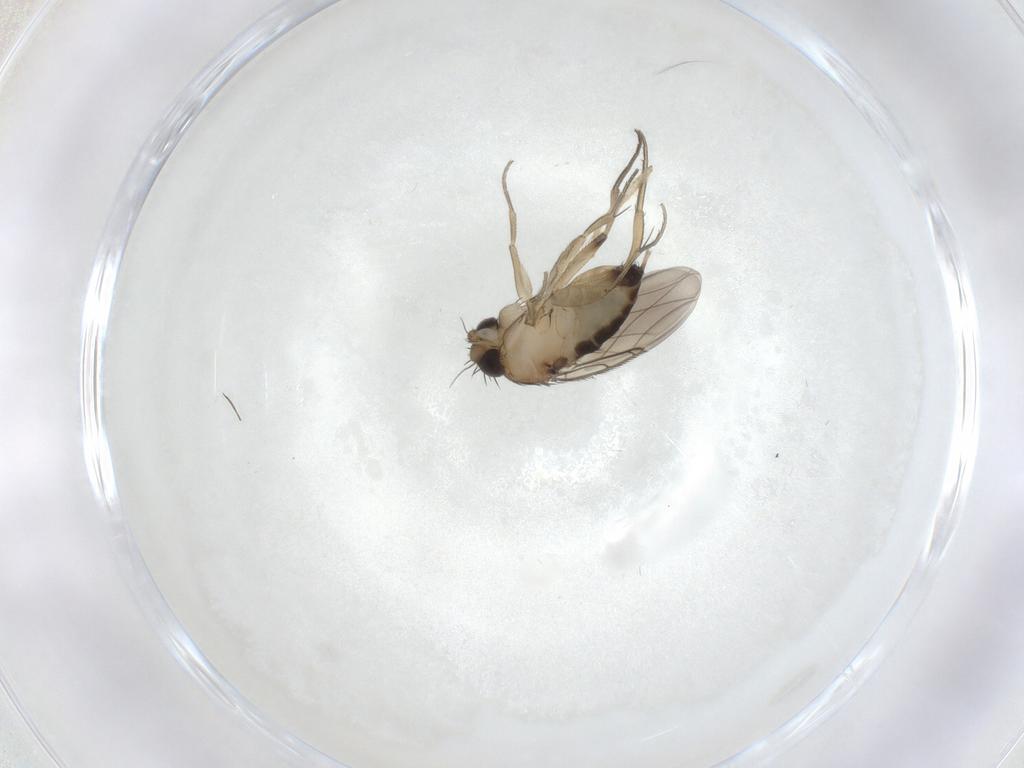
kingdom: Animalia
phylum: Arthropoda
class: Insecta
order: Diptera
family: Phoridae
